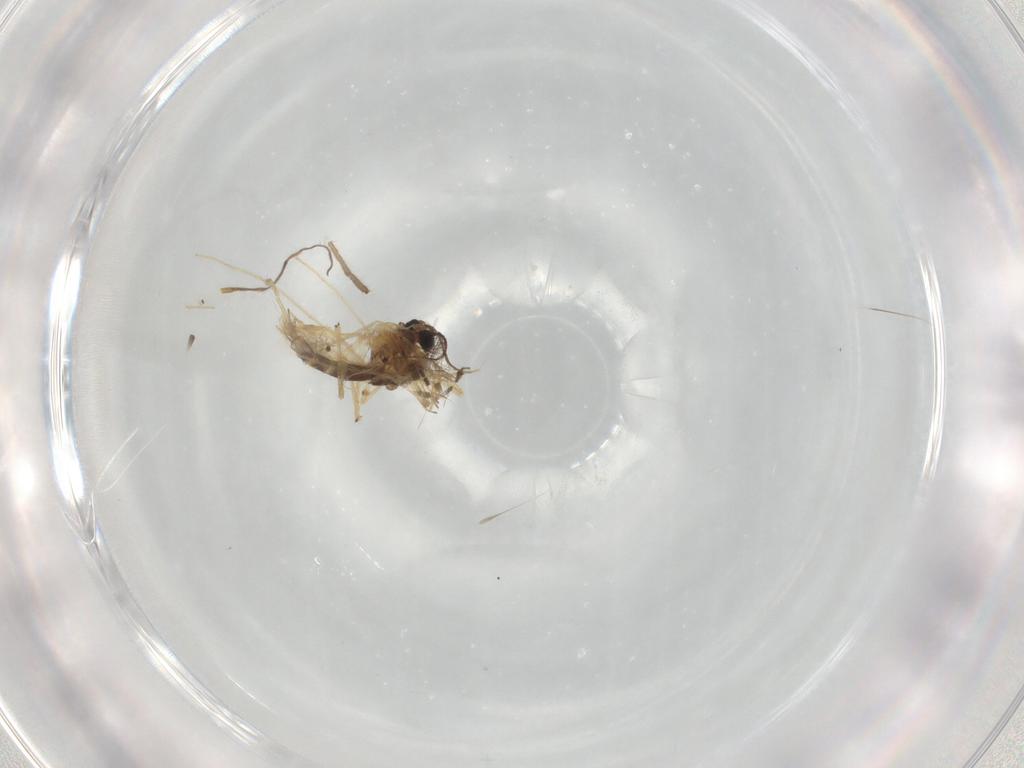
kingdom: Animalia
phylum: Arthropoda
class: Insecta
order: Diptera
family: Chironomidae
